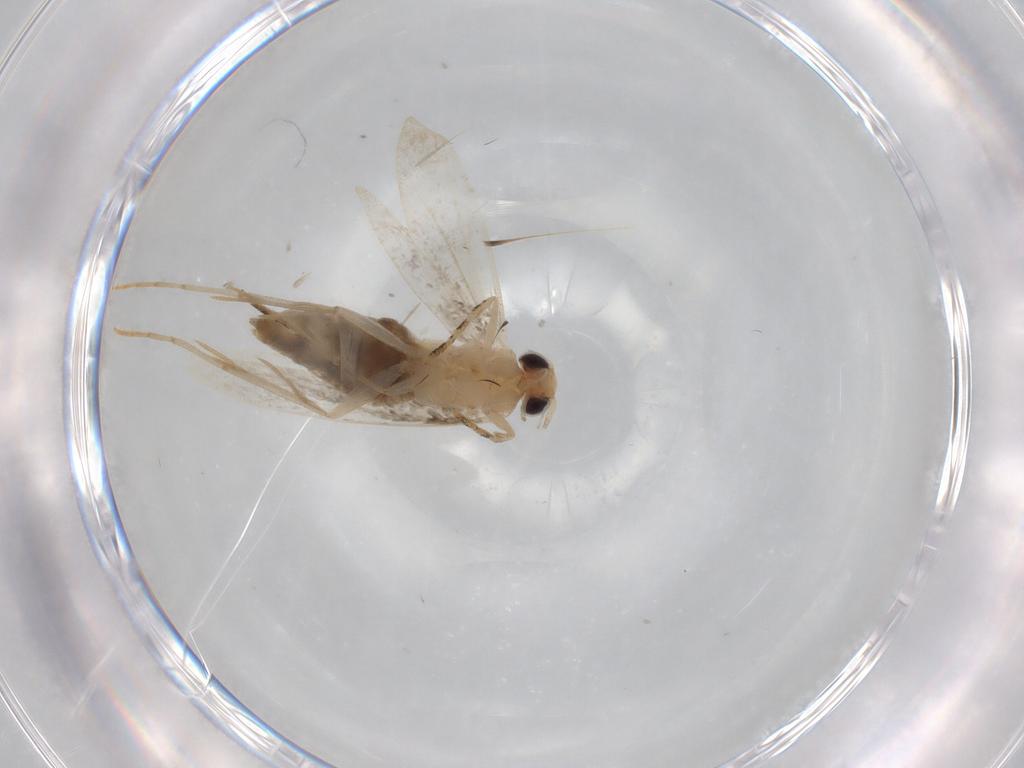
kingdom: Animalia
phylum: Arthropoda
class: Insecta
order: Lepidoptera
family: Tineidae
